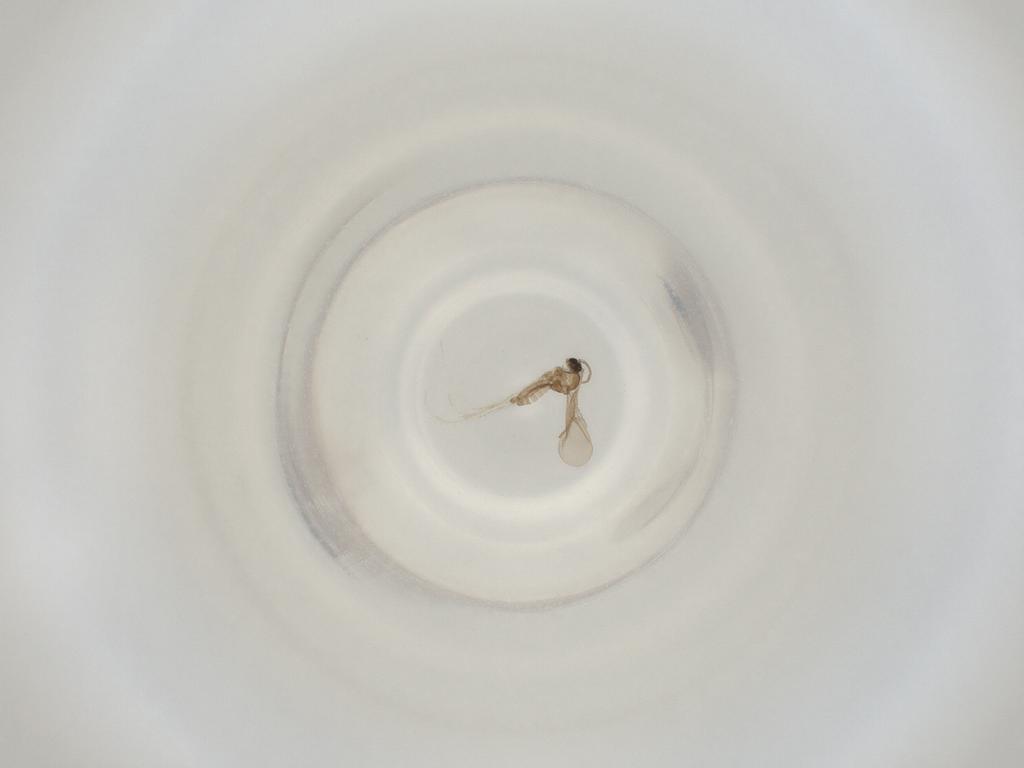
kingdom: Animalia
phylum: Arthropoda
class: Insecta
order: Diptera
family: Cecidomyiidae
